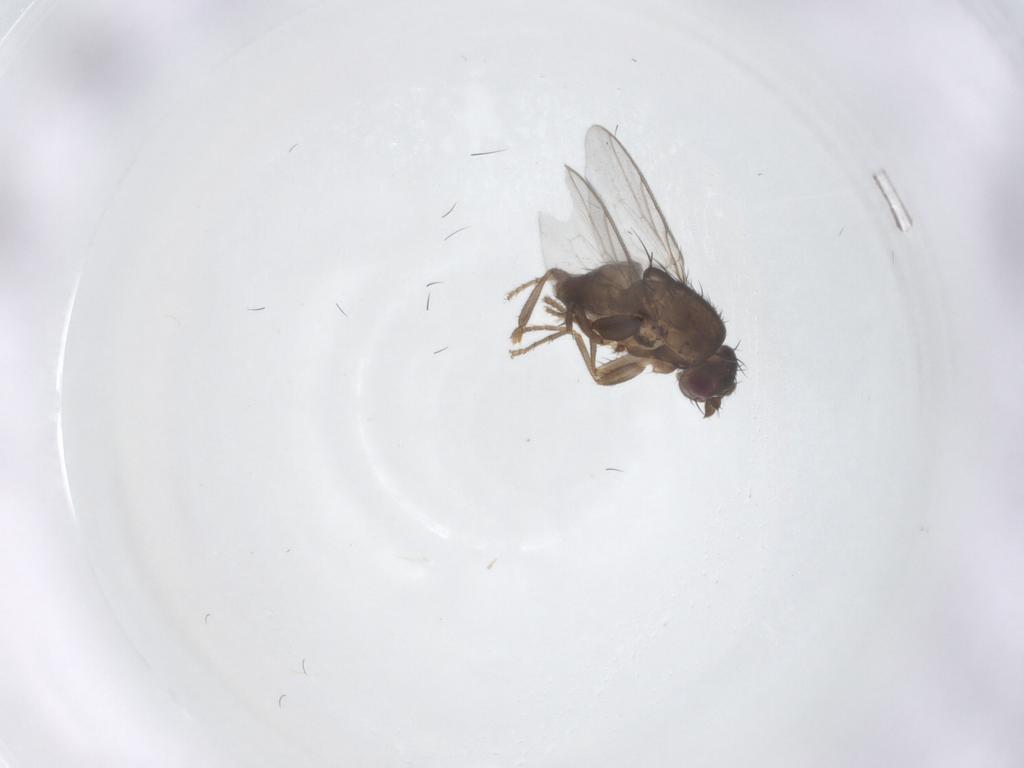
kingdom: Animalia
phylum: Arthropoda
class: Insecta
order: Diptera
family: Sphaeroceridae
